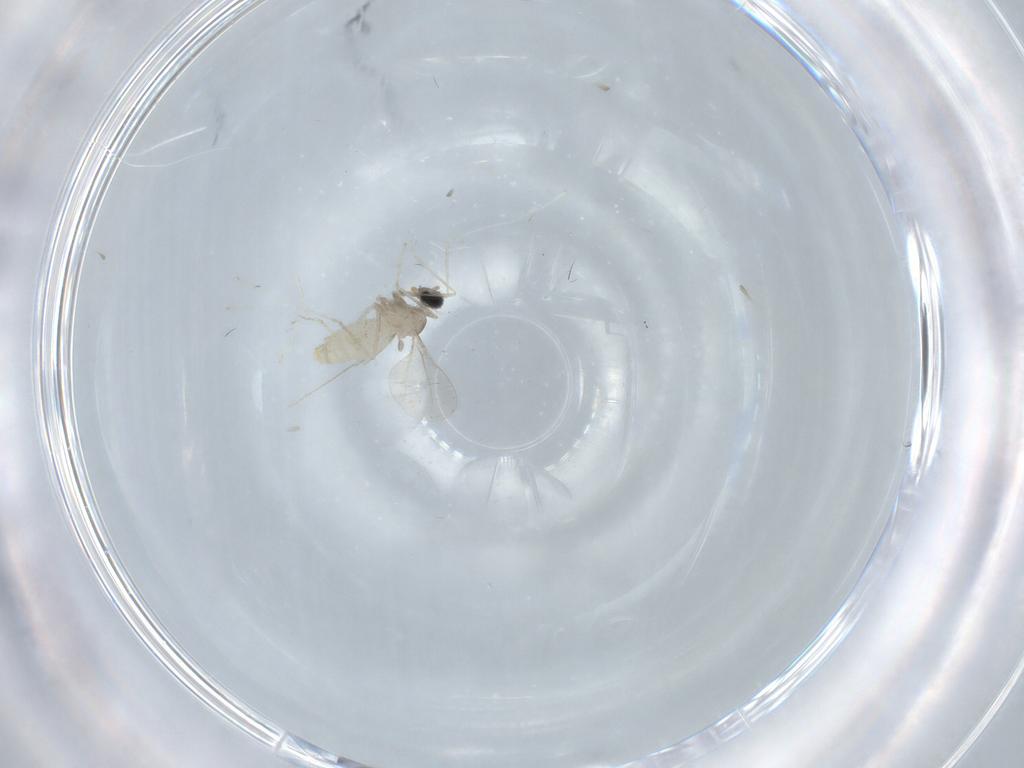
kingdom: Animalia
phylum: Arthropoda
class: Insecta
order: Diptera
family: Cecidomyiidae
